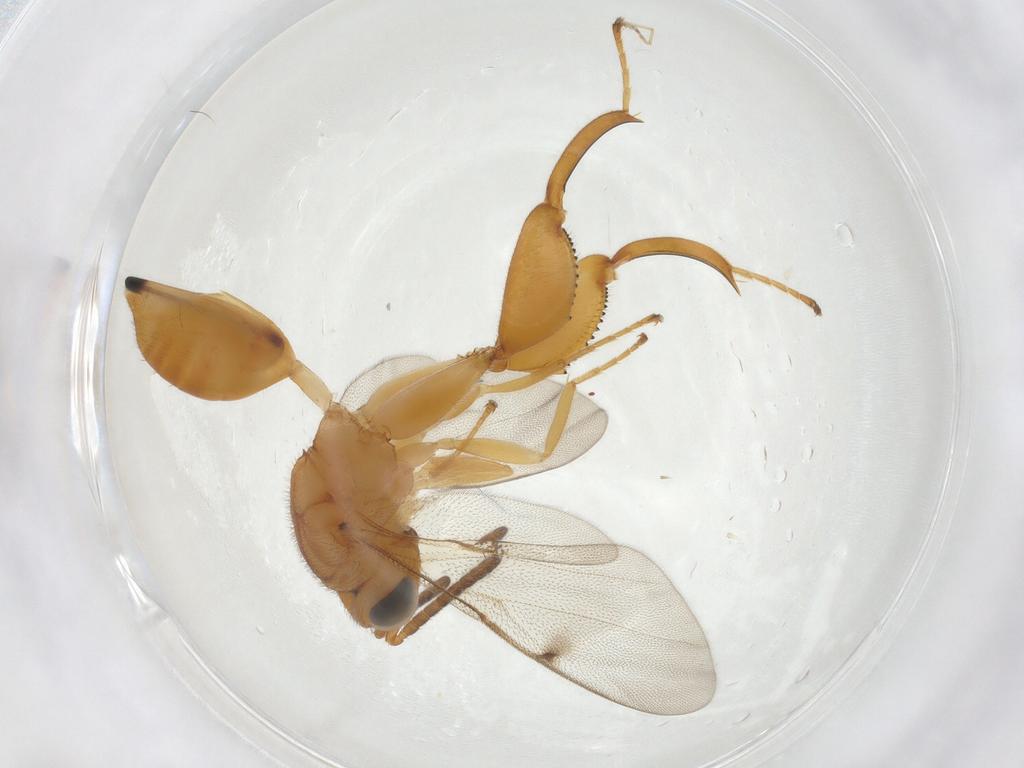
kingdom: Animalia
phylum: Arthropoda
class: Insecta
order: Hymenoptera
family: Chalcididae
